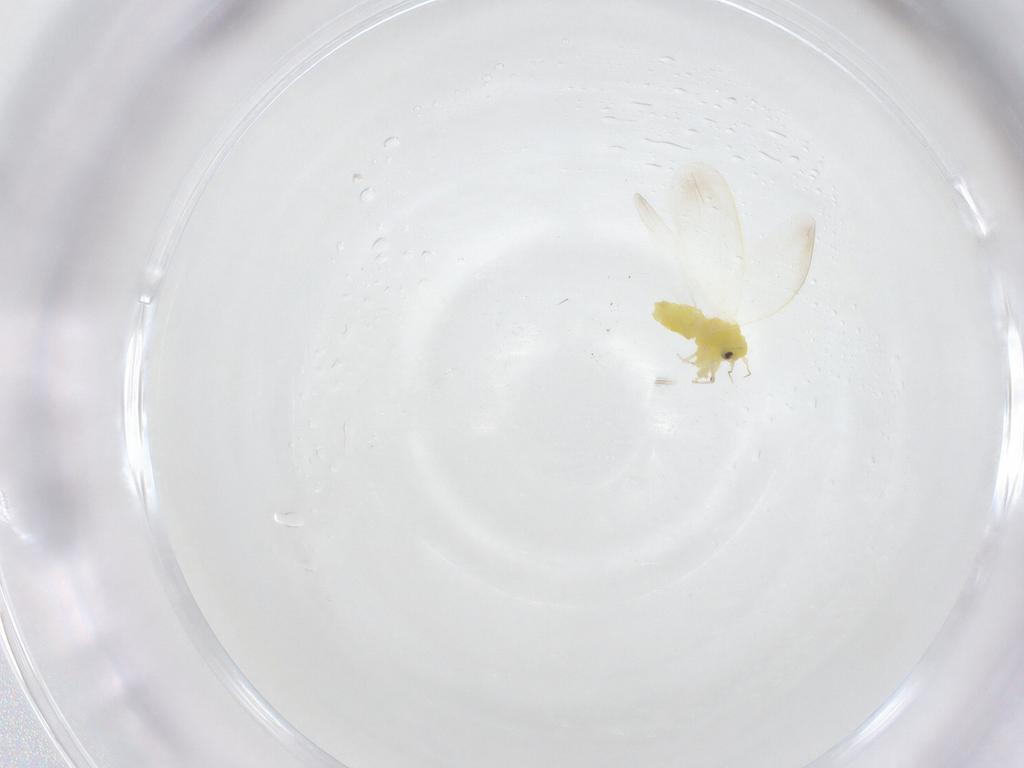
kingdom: Animalia
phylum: Arthropoda
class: Insecta
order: Hemiptera
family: Aleyrodidae
